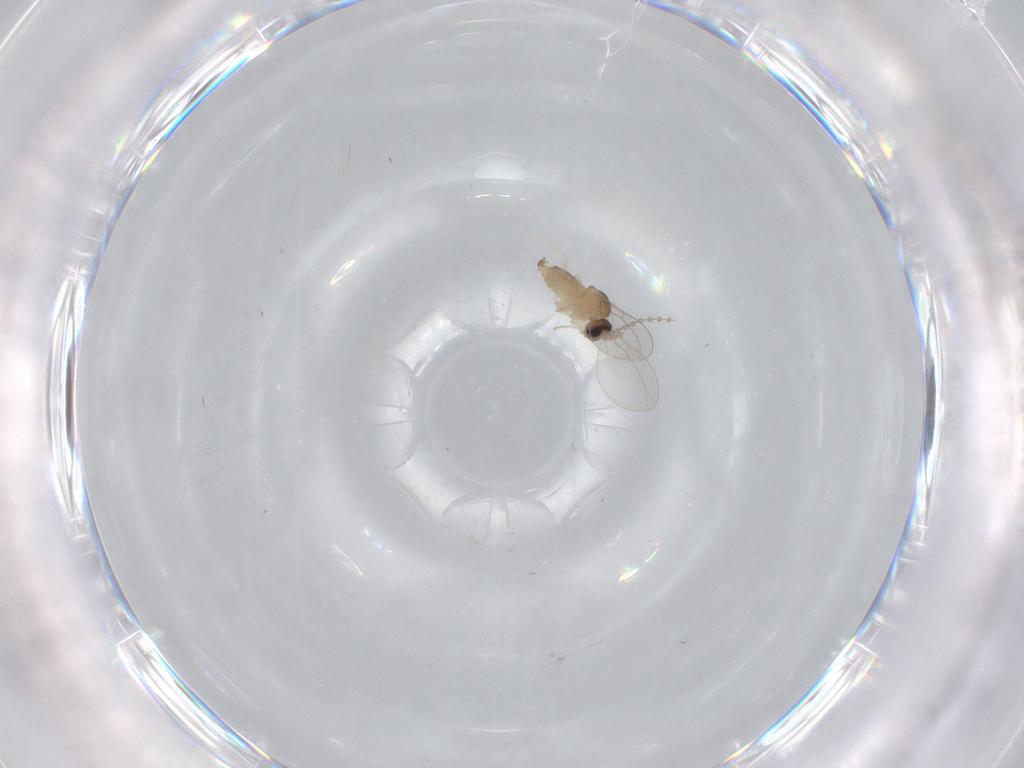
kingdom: Animalia
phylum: Arthropoda
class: Insecta
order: Diptera
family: Cecidomyiidae
